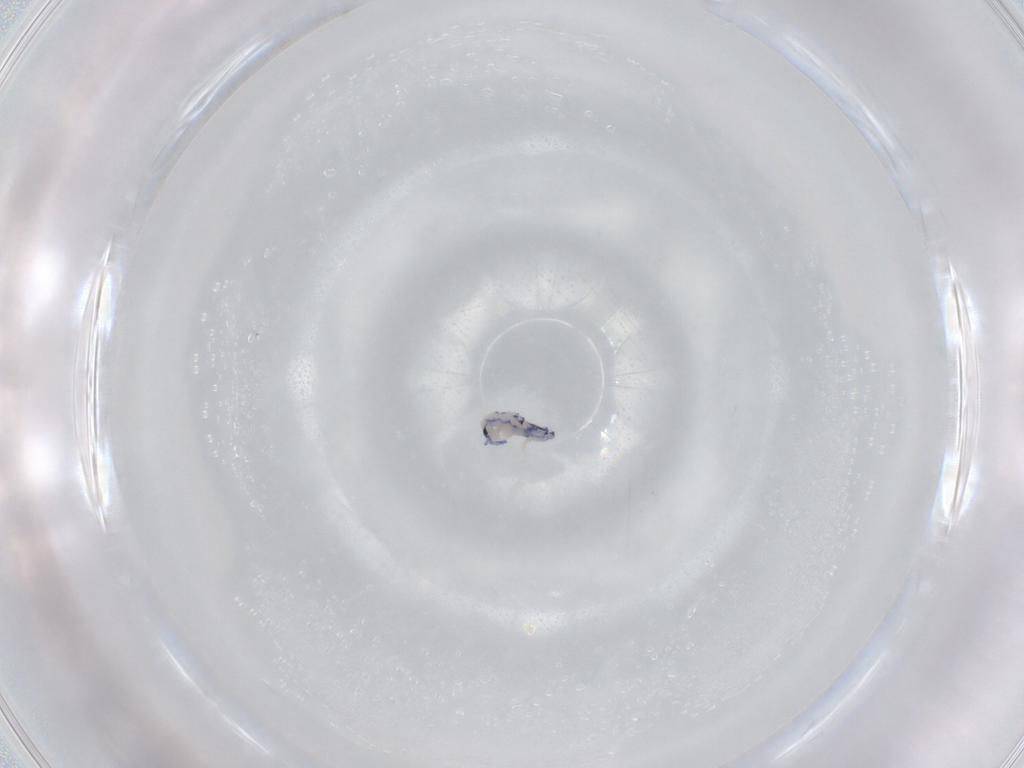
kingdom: Animalia
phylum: Arthropoda
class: Collembola
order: Entomobryomorpha
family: Entomobryidae
